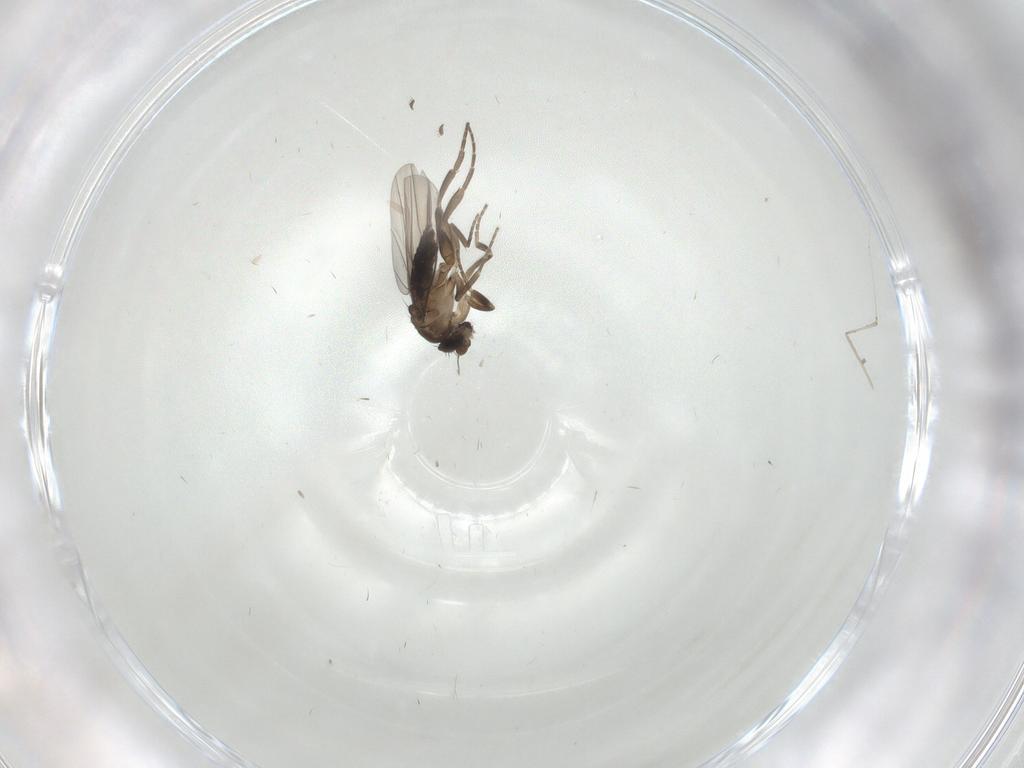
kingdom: Animalia
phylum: Arthropoda
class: Insecta
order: Diptera
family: Phoridae
